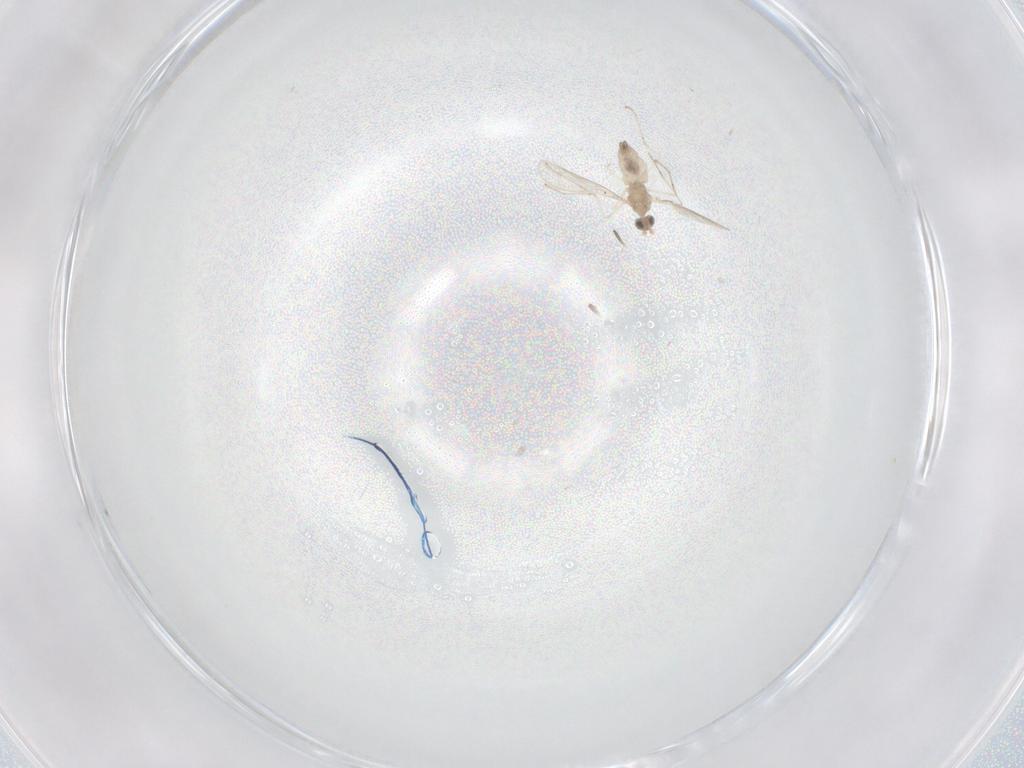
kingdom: Animalia
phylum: Arthropoda
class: Insecta
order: Diptera
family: Cecidomyiidae
